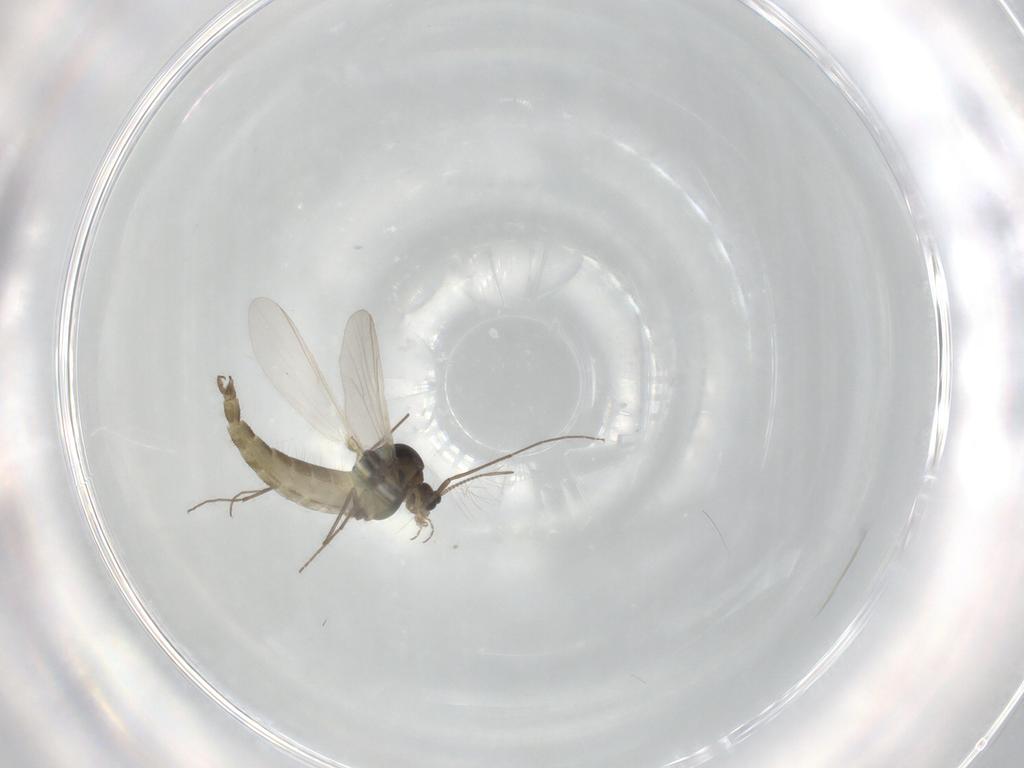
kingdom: Animalia
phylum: Arthropoda
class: Insecta
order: Diptera
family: Chironomidae
